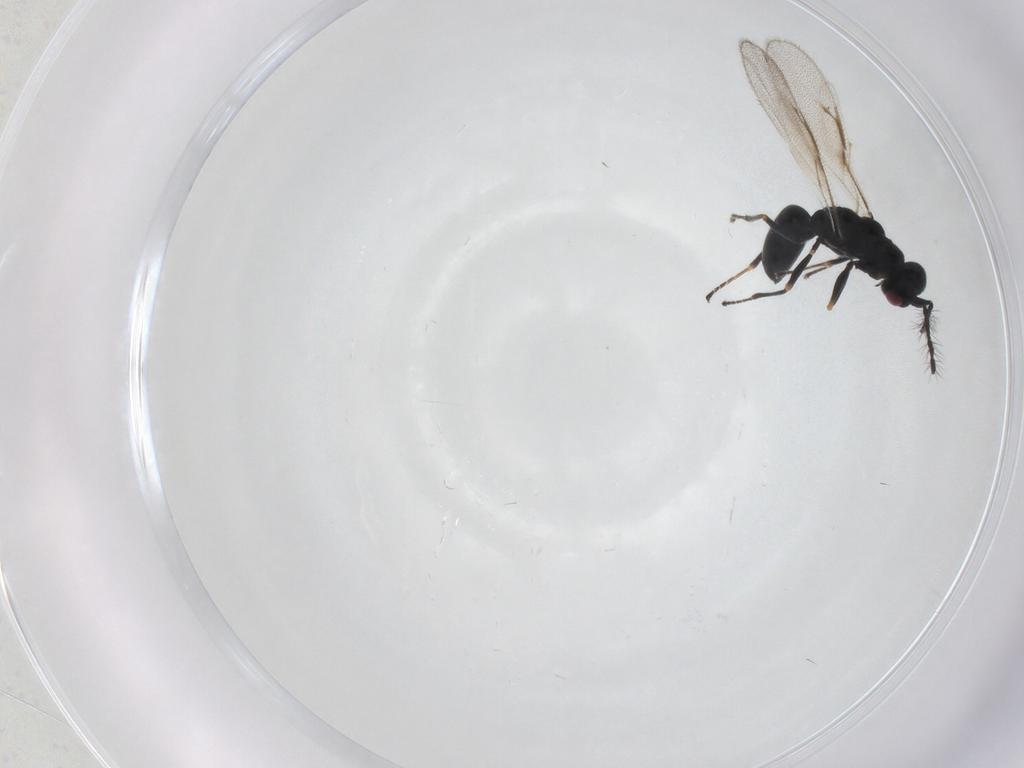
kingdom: Animalia
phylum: Arthropoda
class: Insecta
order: Hymenoptera
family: Eurytomidae
